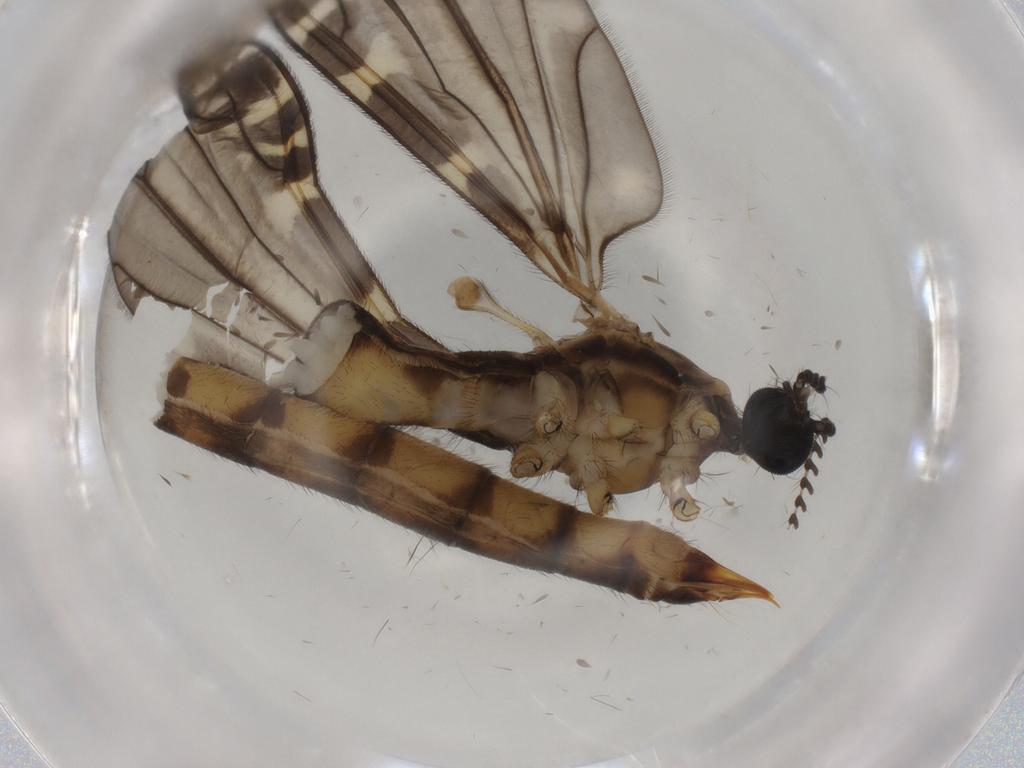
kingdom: Animalia
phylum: Arthropoda
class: Insecta
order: Diptera
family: Limoniidae
